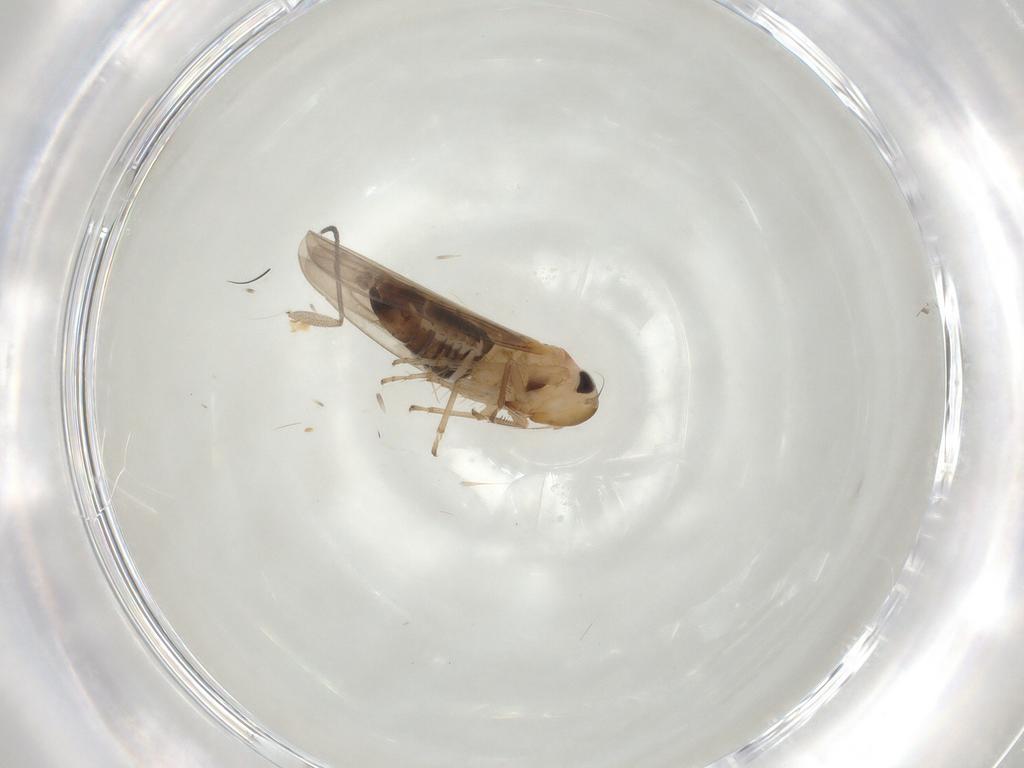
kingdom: Animalia
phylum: Arthropoda
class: Insecta
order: Hemiptera
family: Cicadellidae
